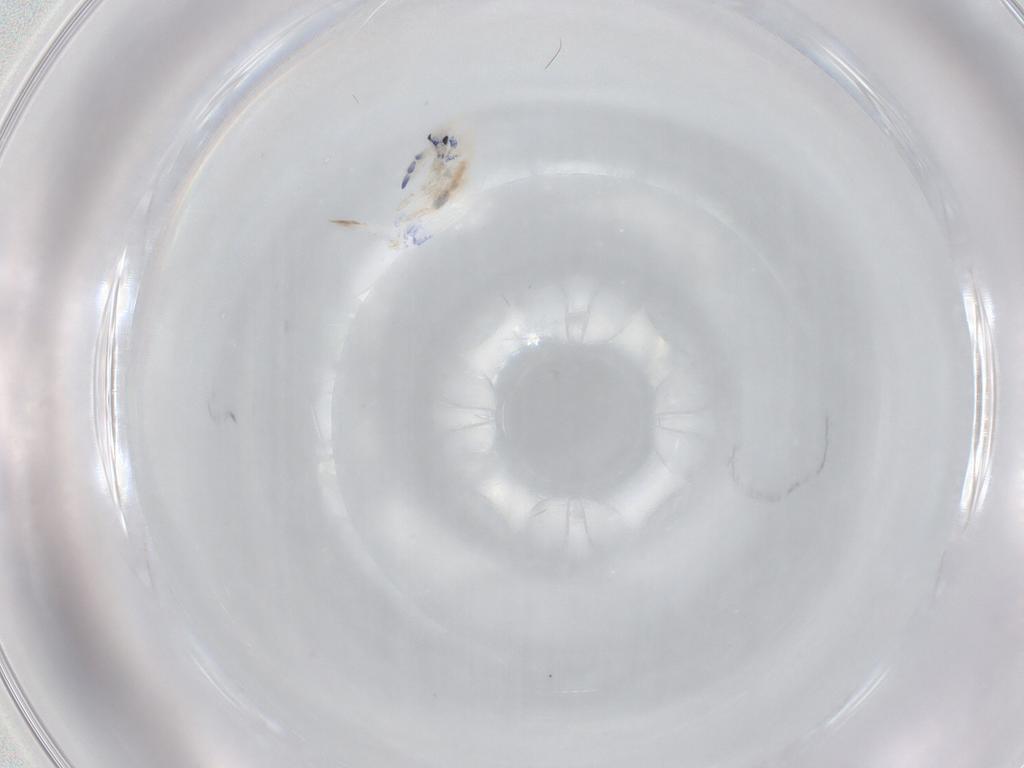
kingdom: Animalia
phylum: Arthropoda
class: Collembola
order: Entomobryomorpha
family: Entomobryidae
